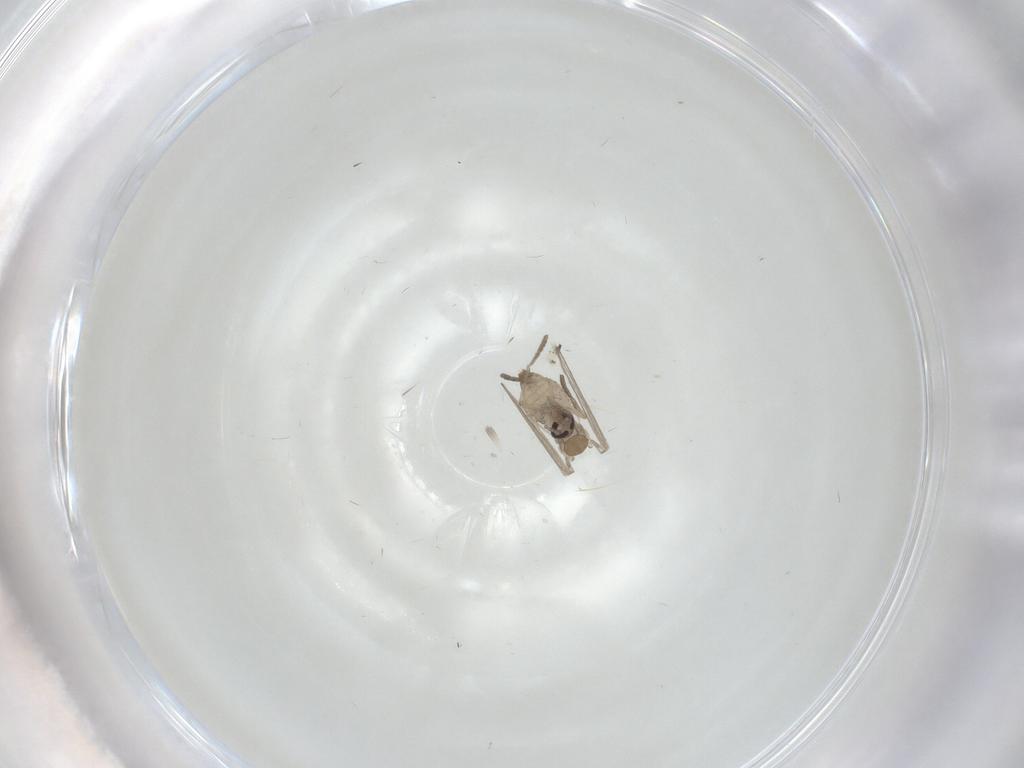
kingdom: Animalia
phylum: Arthropoda
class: Insecta
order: Diptera
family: Psychodidae
